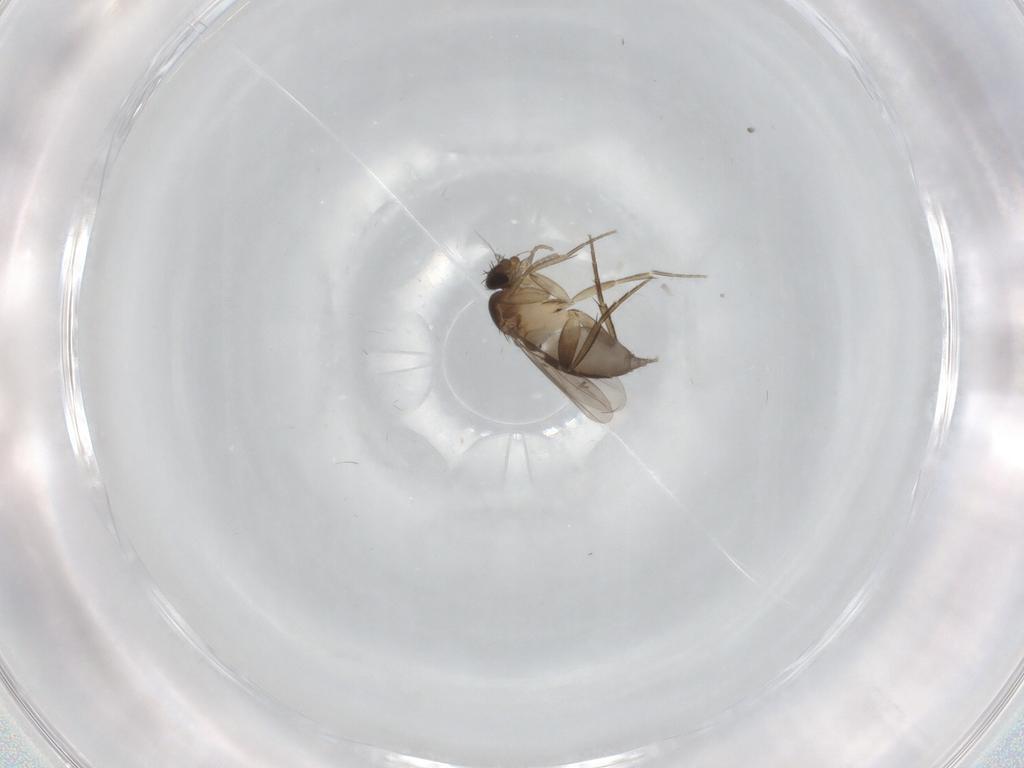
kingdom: Animalia
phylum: Arthropoda
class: Insecta
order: Diptera
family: Phoridae
